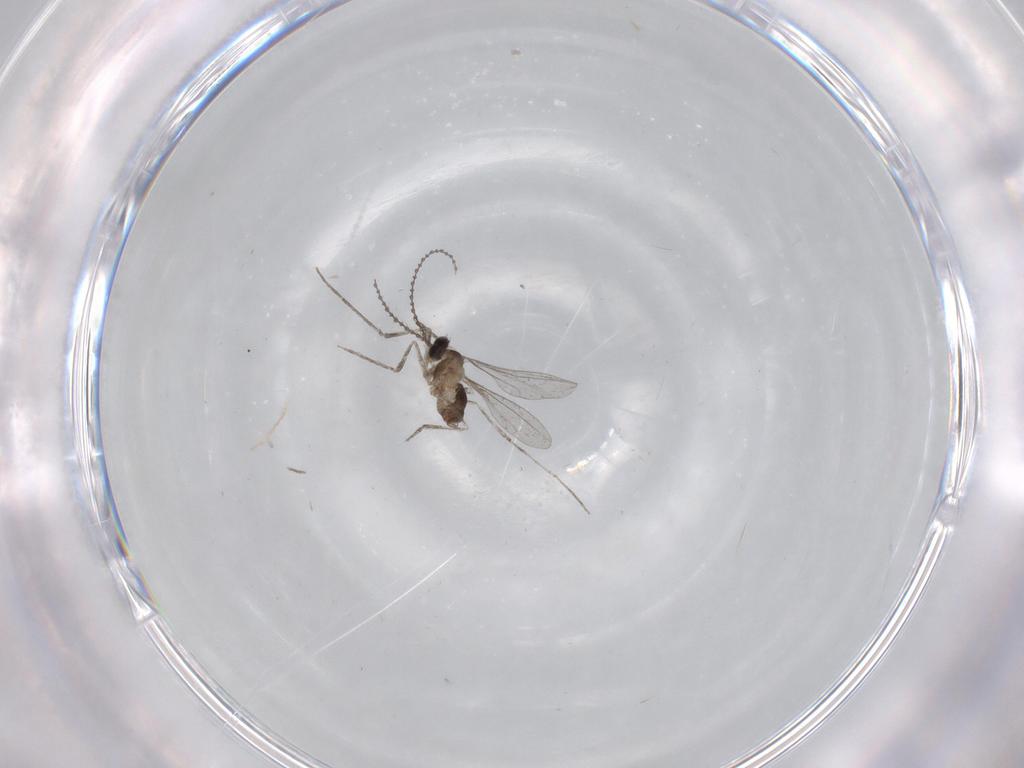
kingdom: Animalia
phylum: Arthropoda
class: Insecta
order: Diptera
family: Cecidomyiidae
